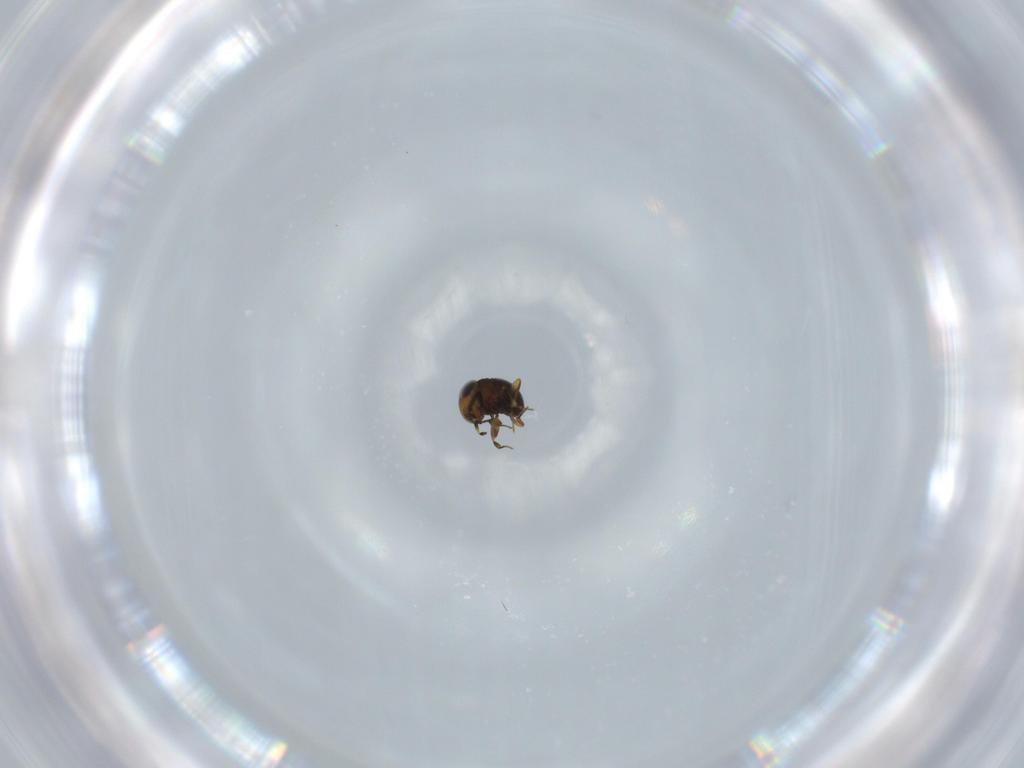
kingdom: Animalia
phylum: Arthropoda
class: Insecta
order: Hymenoptera
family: Scelionidae
